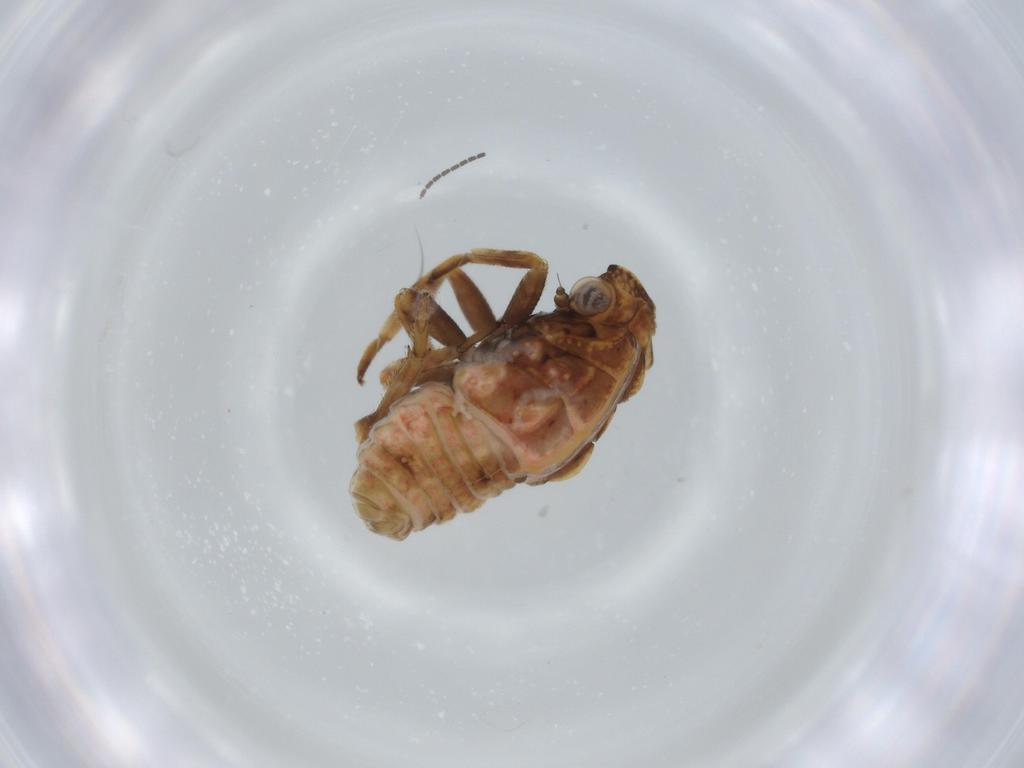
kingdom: Animalia
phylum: Arthropoda
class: Insecta
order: Hemiptera
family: Fulgoroidea_incertae_sedis
